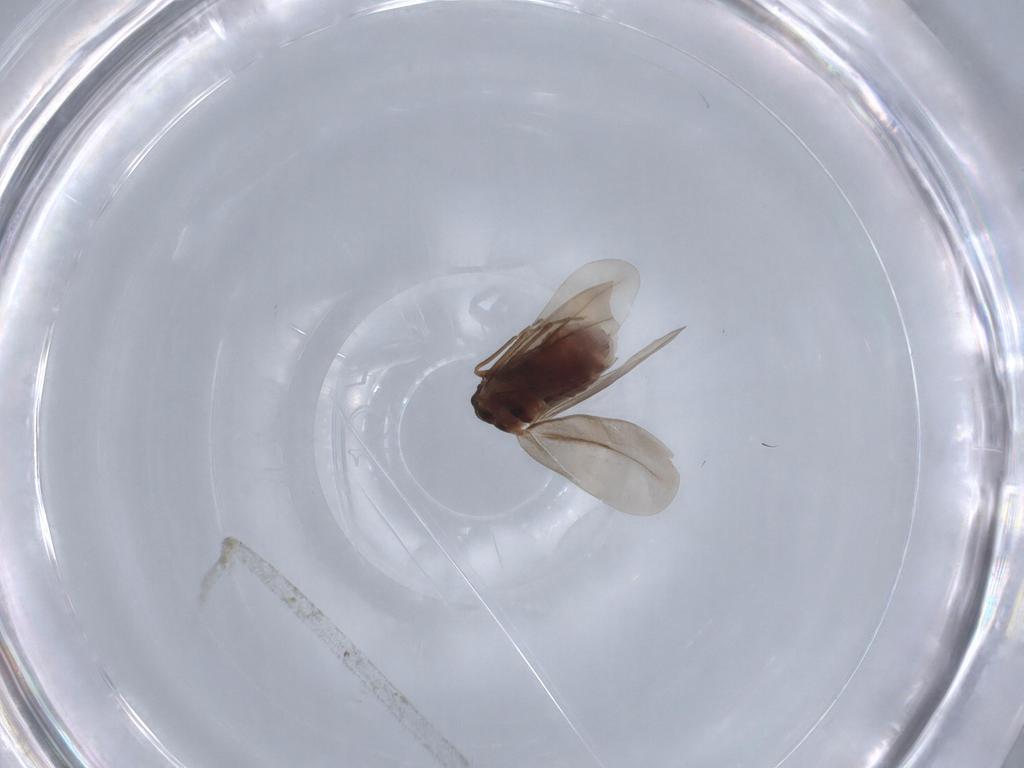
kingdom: Animalia
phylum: Arthropoda
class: Insecta
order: Hemiptera
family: Aleyrodidae
